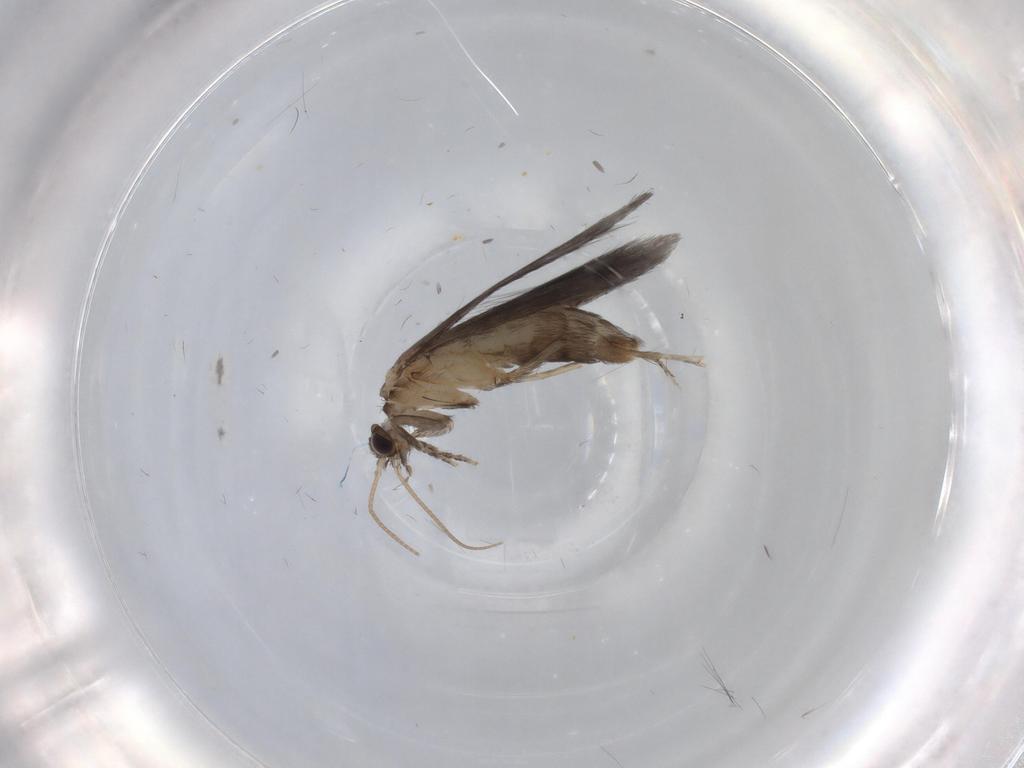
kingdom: Animalia
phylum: Arthropoda
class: Insecta
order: Trichoptera
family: Hydroptilidae
